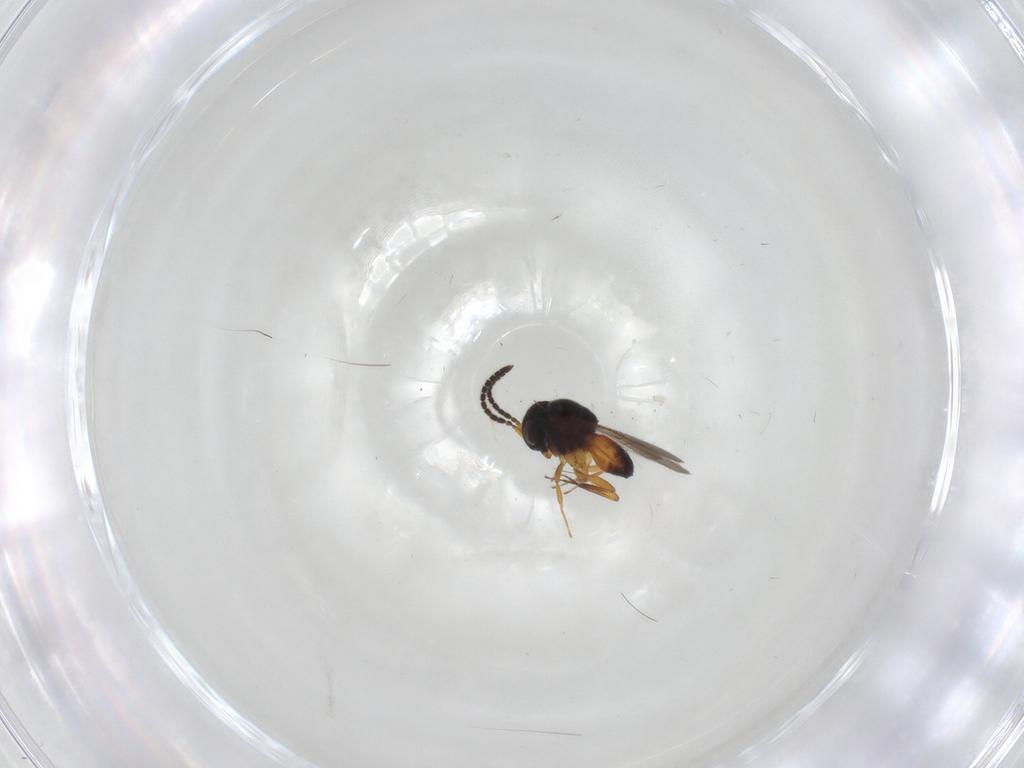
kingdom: Animalia
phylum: Arthropoda
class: Insecta
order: Hymenoptera
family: Scelionidae
